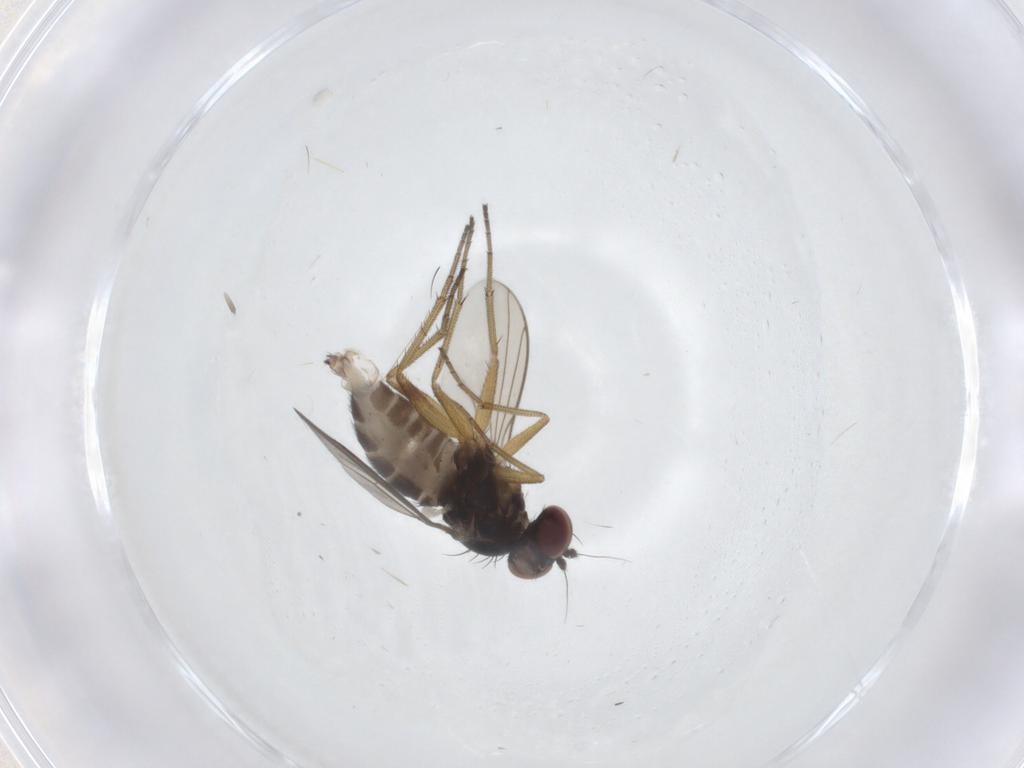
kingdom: Animalia
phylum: Arthropoda
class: Insecta
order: Diptera
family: Dolichopodidae
